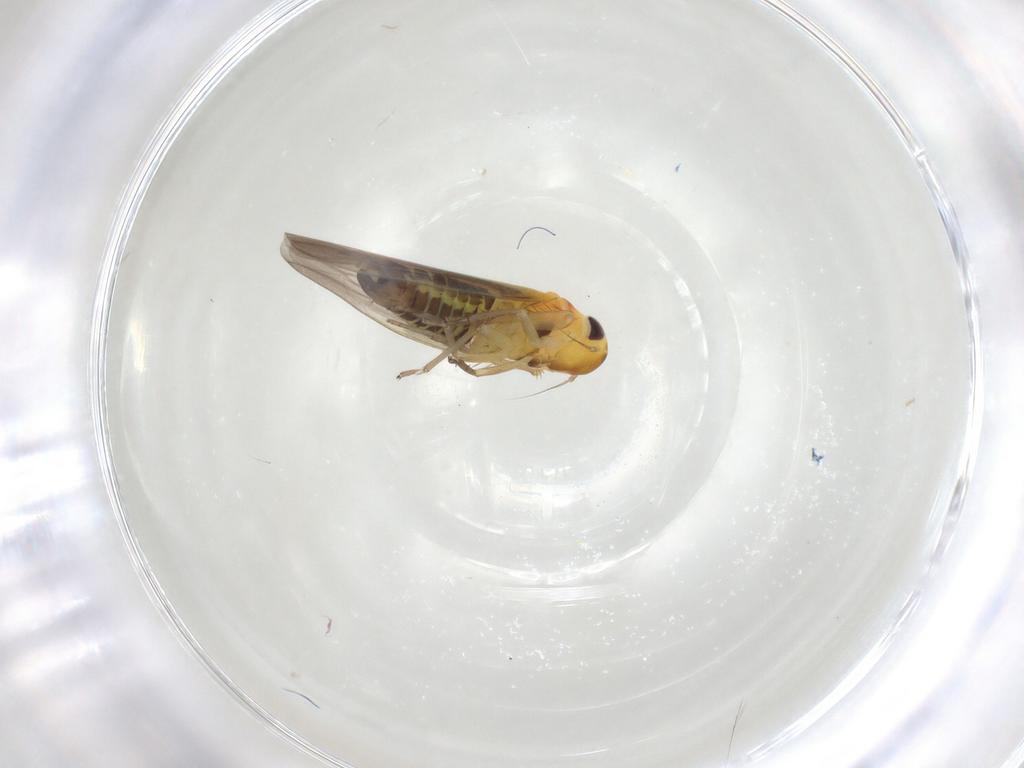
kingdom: Animalia
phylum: Arthropoda
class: Insecta
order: Hemiptera
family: Cicadellidae
